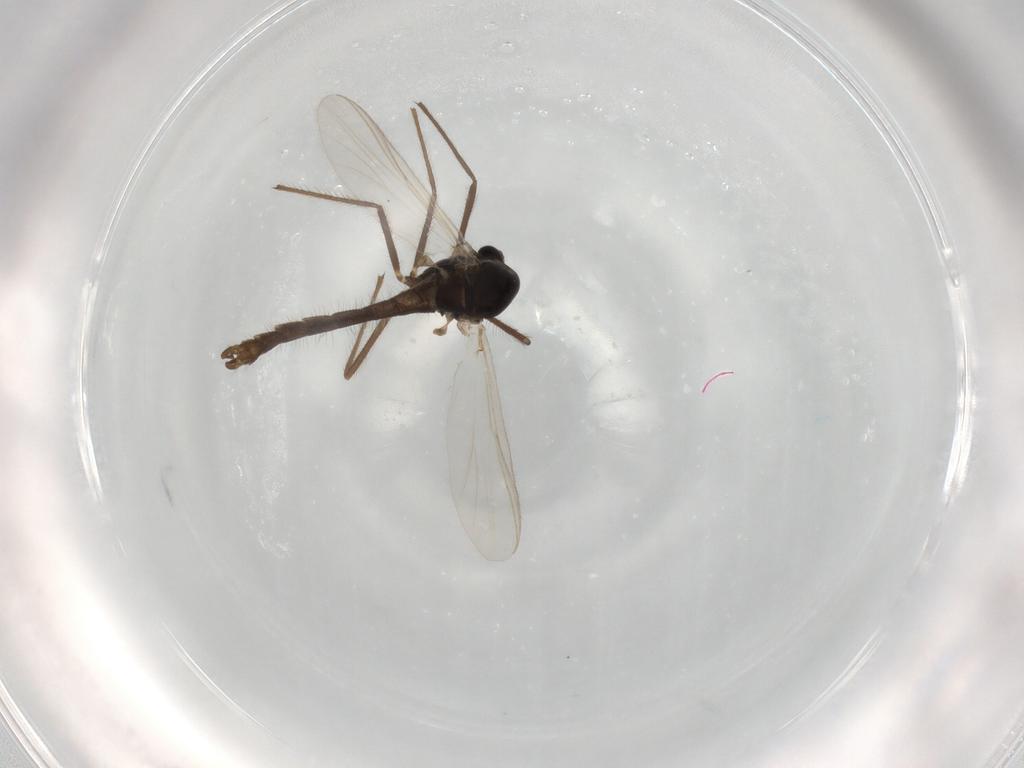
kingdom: Animalia
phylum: Arthropoda
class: Insecta
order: Diptera
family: Chironomidae
